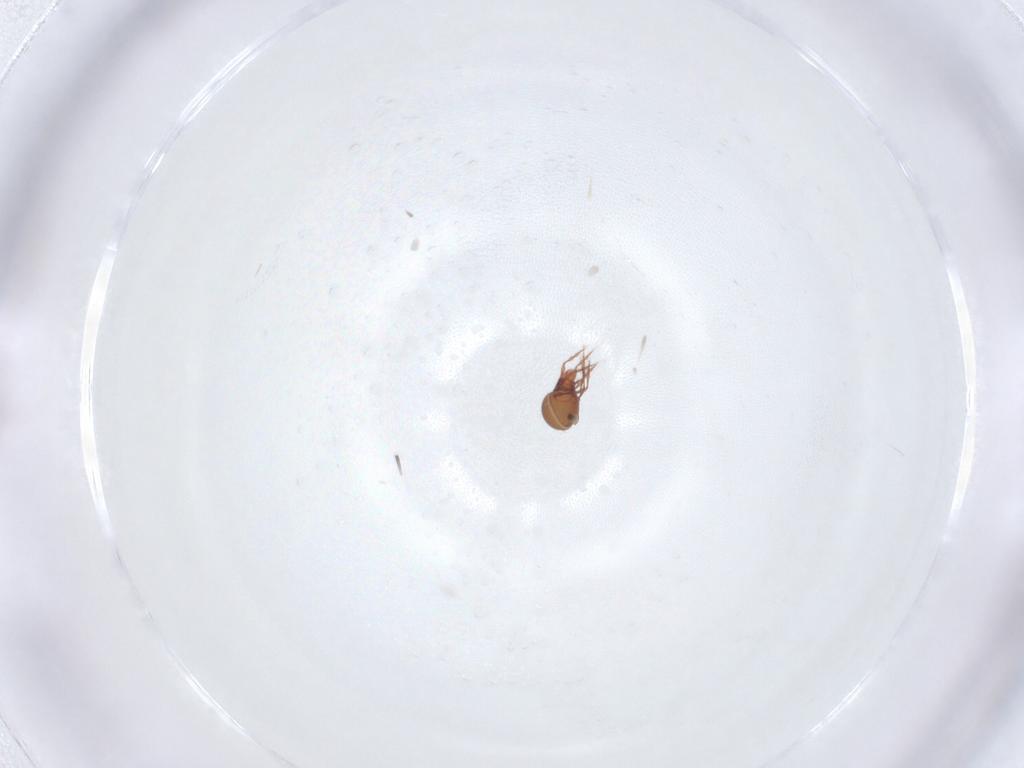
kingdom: Animalia
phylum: Arthropoda
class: Arachnida
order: Sarcoptiformes
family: Oppiidae
